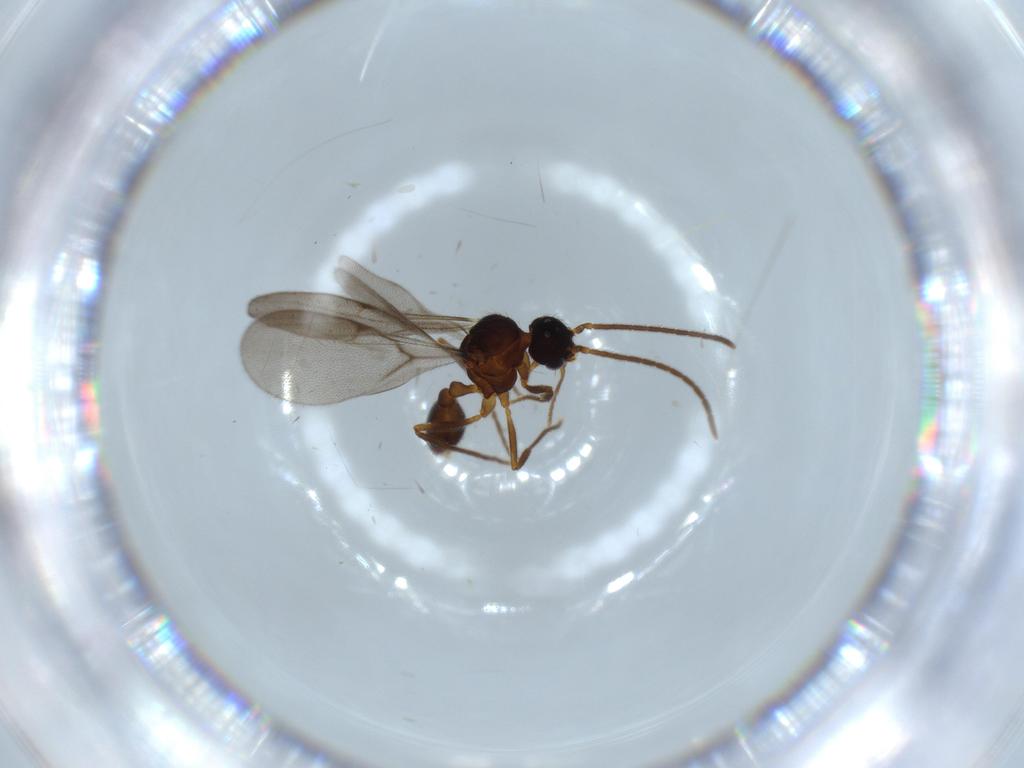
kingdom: Animalia
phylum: Arthropoda
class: Insecta
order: Hymenoptera
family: Formicidae
